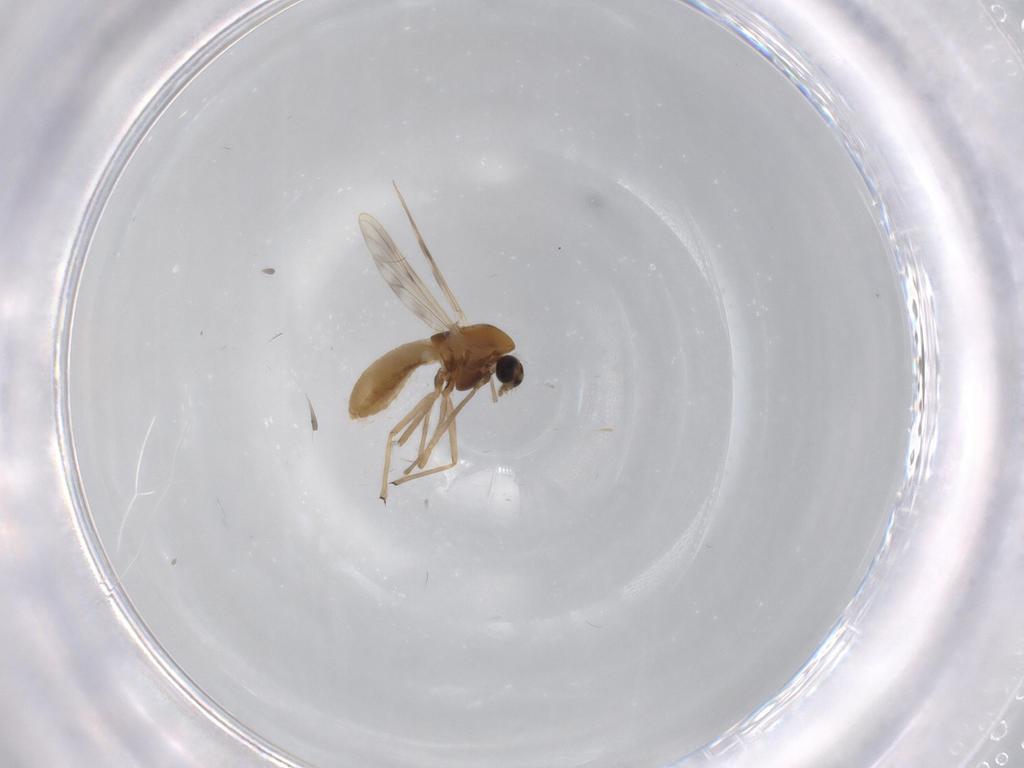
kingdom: Animalia
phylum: Arthropoda
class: Insecta
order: Diptera
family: Chironomidae
